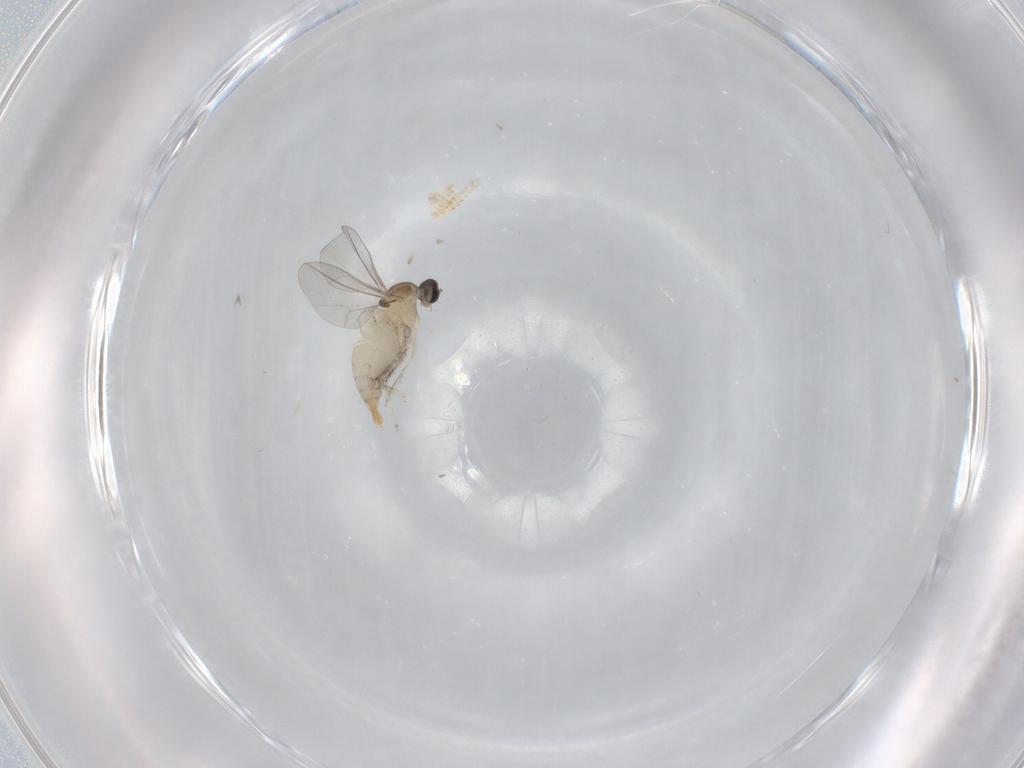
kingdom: Animalia
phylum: Arthropoda
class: Insecta
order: Diptera
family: Cecidomyiidae
